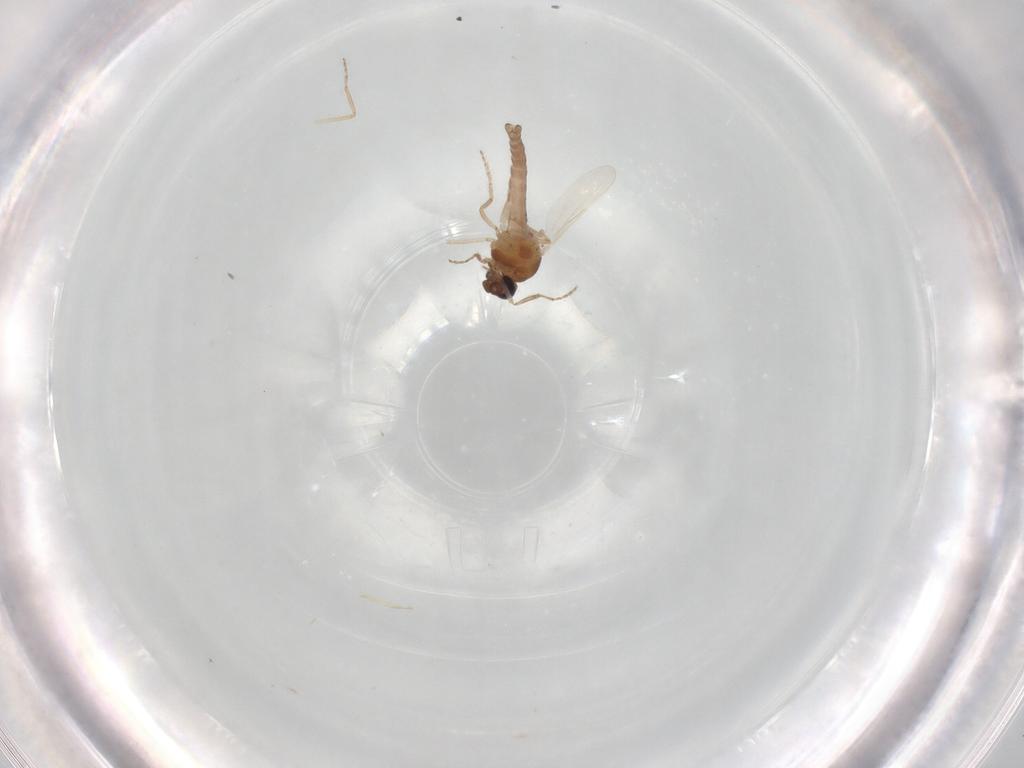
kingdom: Animalia
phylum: Arthropoda
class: Insecta
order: Diptera
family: Ceratopogonidae
